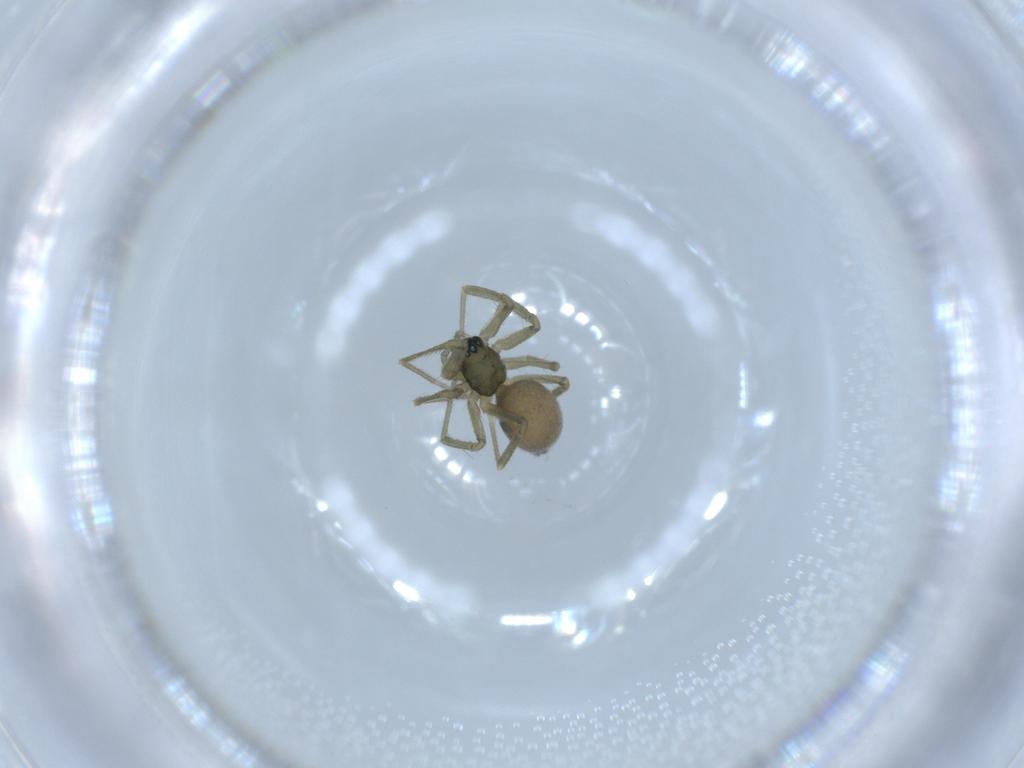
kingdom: Animalia
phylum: Arthropoda
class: Arachnida
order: Araneae
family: Linyphiidae
